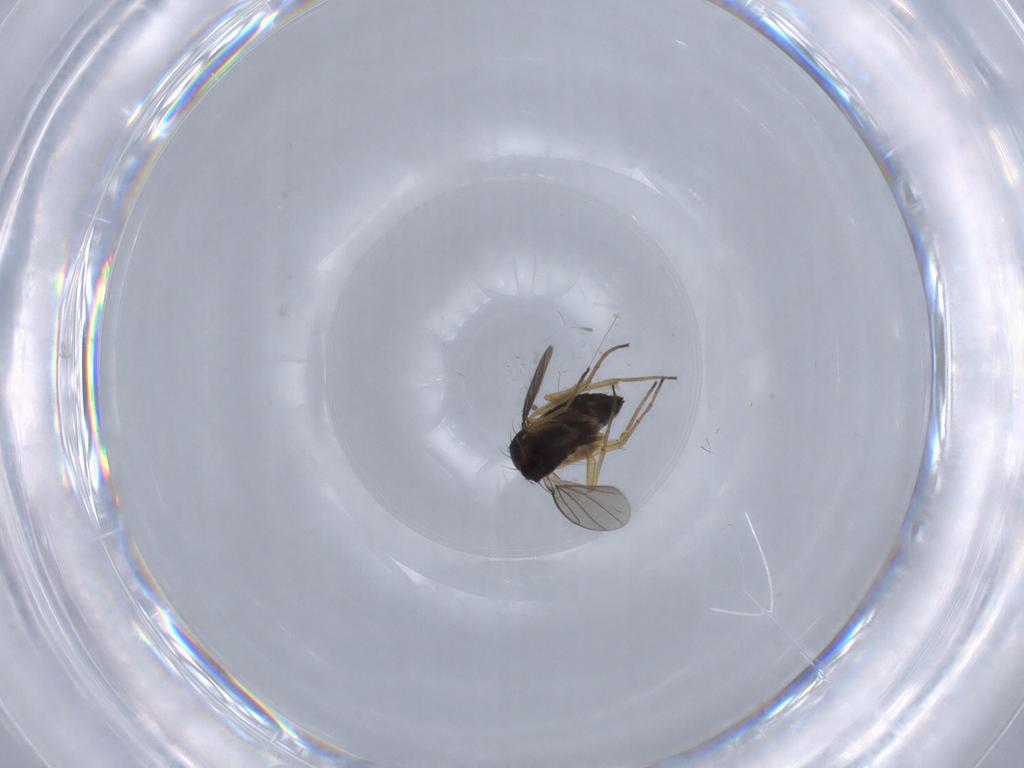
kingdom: Animalia
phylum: Arthropoda
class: Insecta
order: Diptera
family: Dolichopodidae
